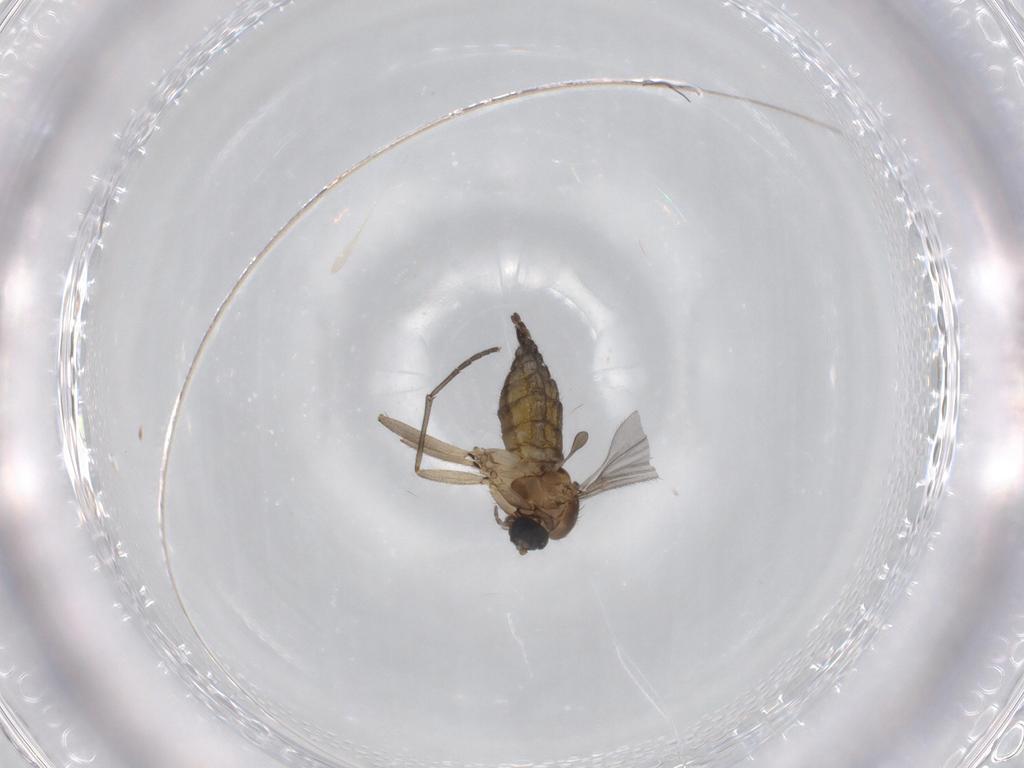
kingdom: Animalia
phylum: Arthropoda
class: Insecta
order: Diptera
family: Sciaridae
